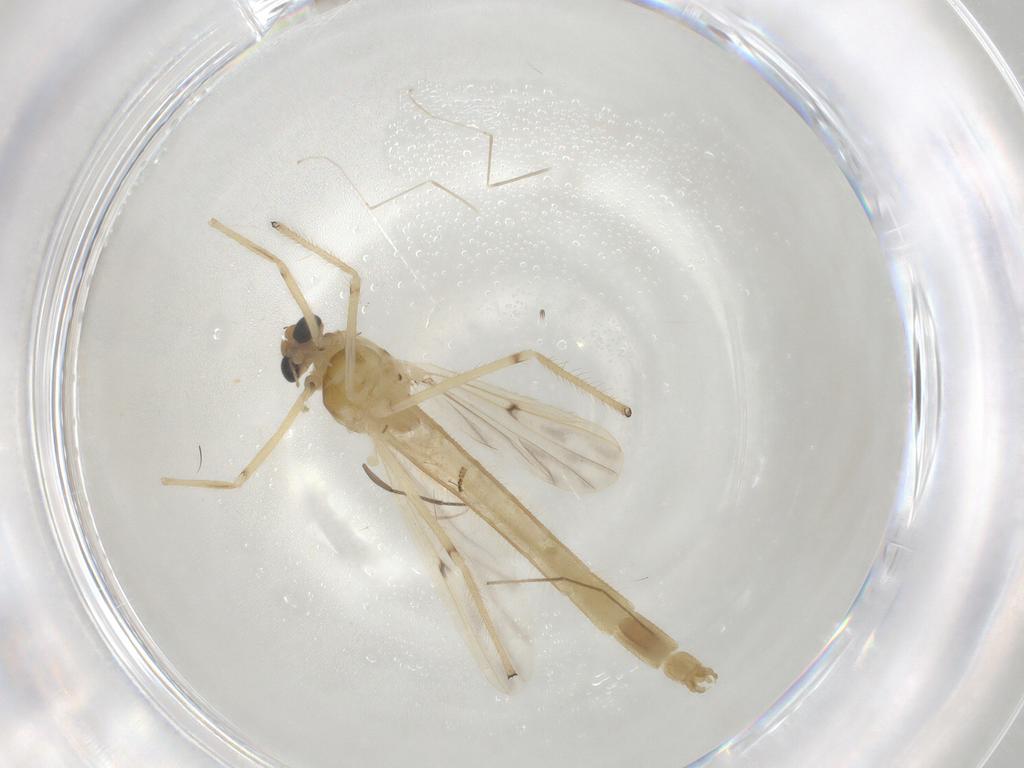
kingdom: Animalia
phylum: Arthropoda
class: Insecta
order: Diptera
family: Chironomidae
